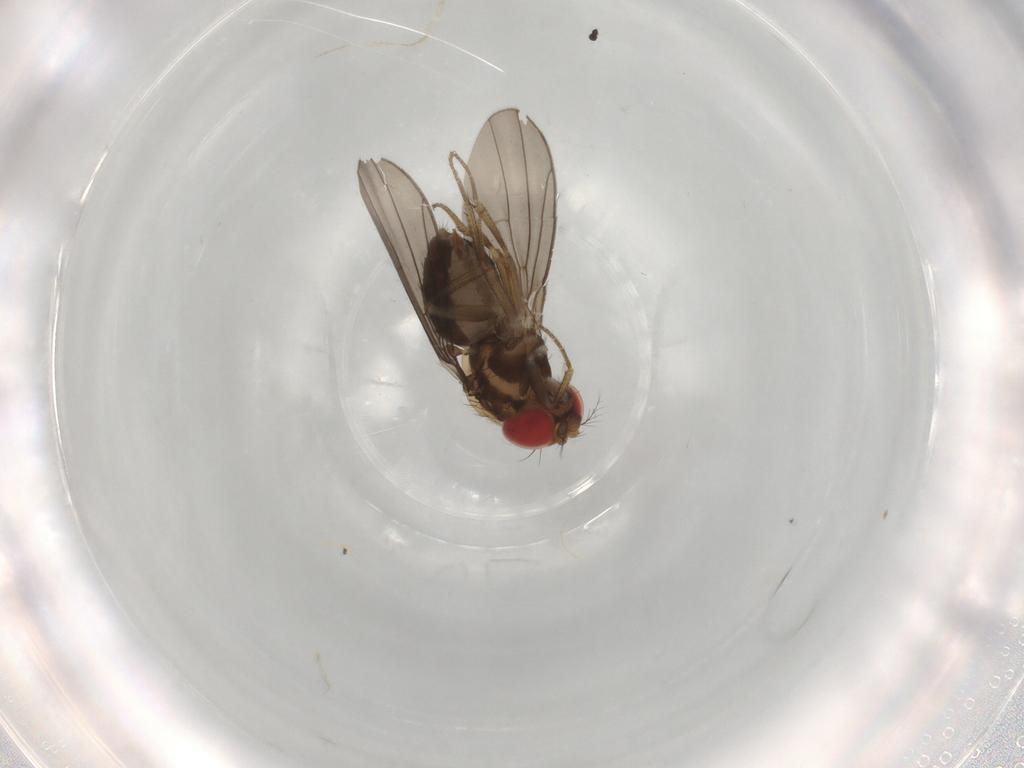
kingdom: Animalia
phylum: Arthropoda
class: Insecta
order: Diptera
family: Drosophilidae
